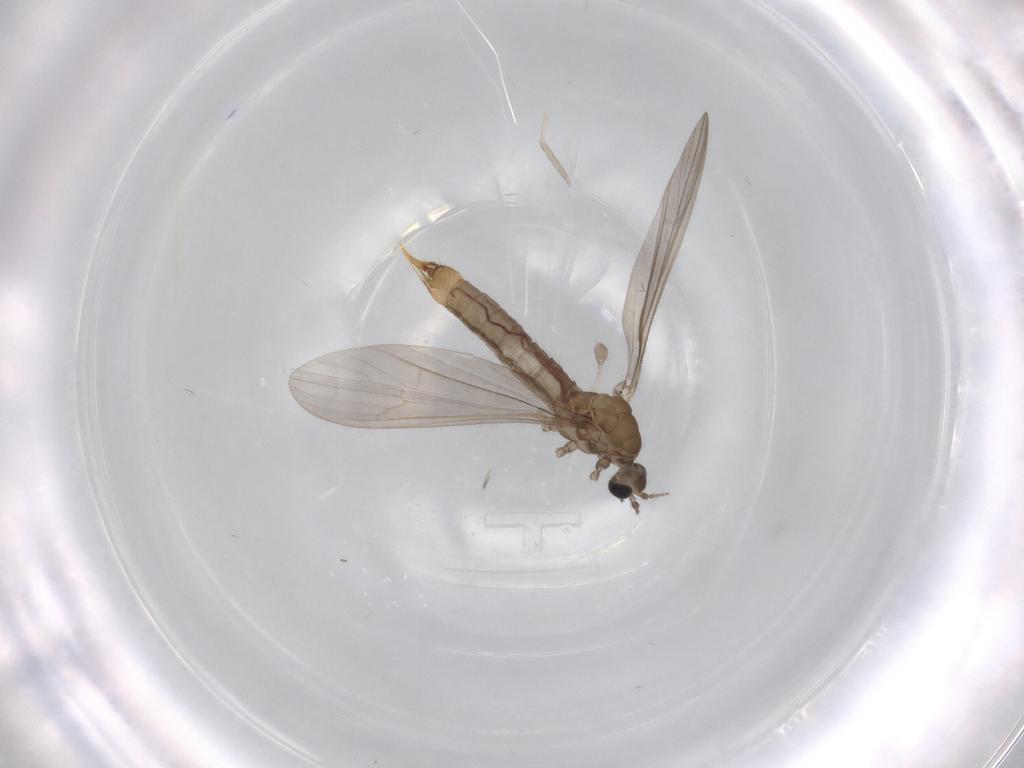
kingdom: Animalia
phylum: Arthropoda
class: Insecta
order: Diptera
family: Limoniidae
